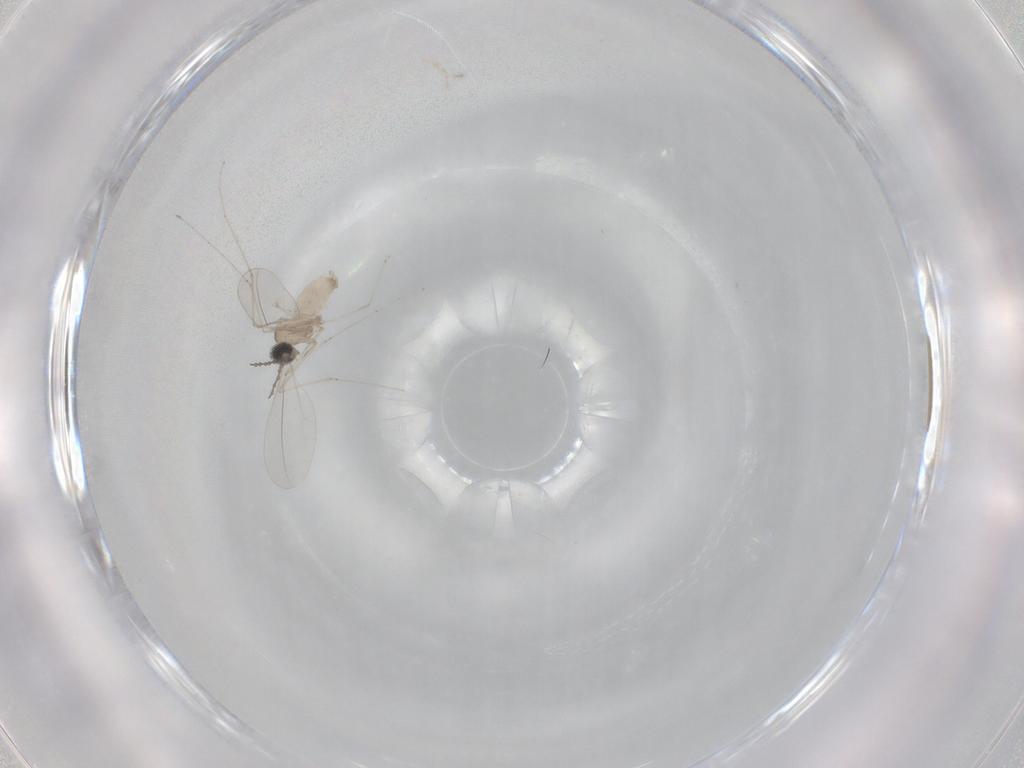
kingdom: Animalia
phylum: Arthropoda
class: Insecta
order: Diptera
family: Cecidomyiidae
